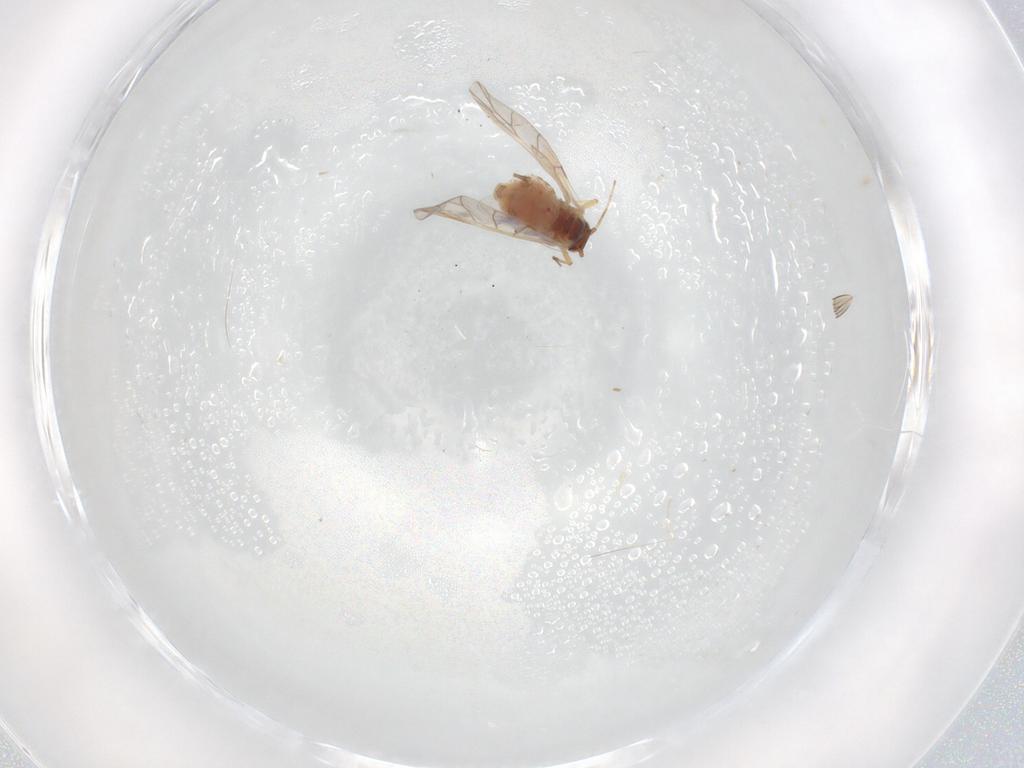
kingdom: Animalia
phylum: Arthropoda
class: Insecta
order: Hemiptera
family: Aphididae
